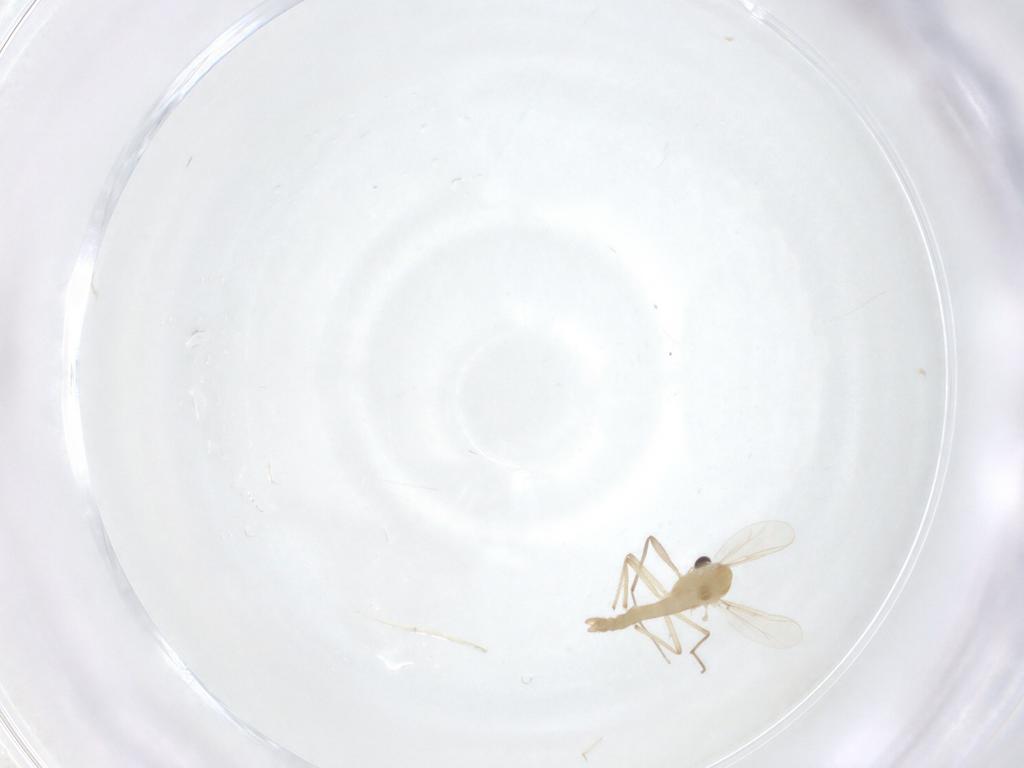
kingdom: Animalia
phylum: Arthropoda
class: Insecta
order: Diptera
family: Chironomidae
